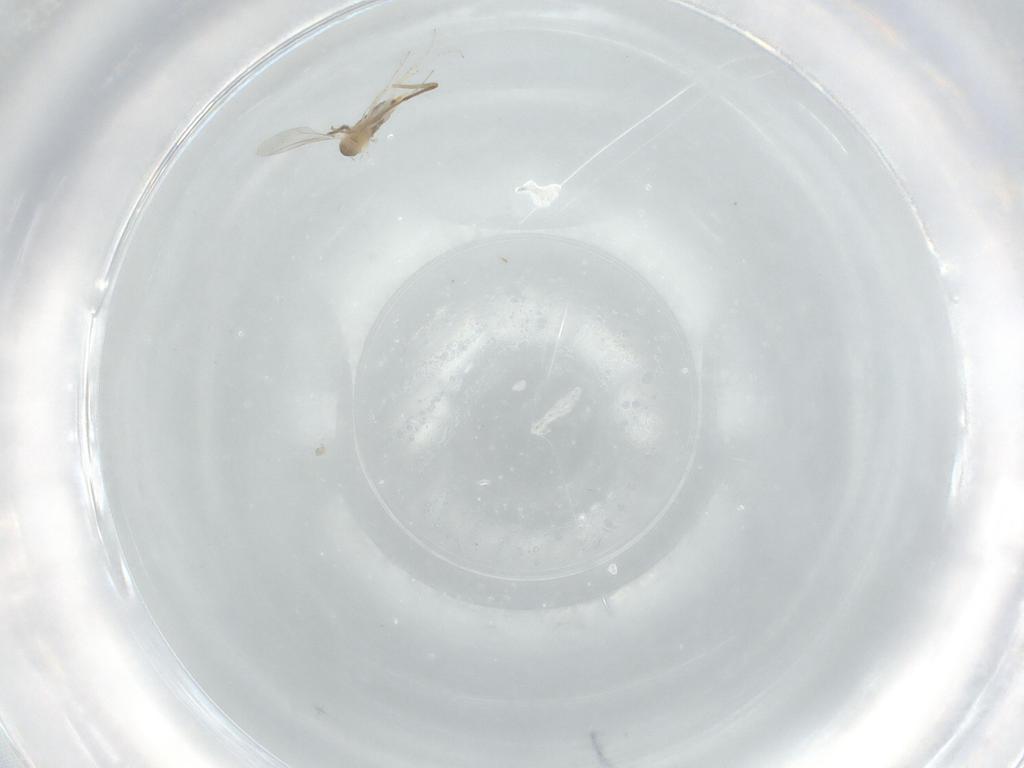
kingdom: Animalia
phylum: Arthropoda
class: Insecta
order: Diptera
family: Cecidomyiidae
